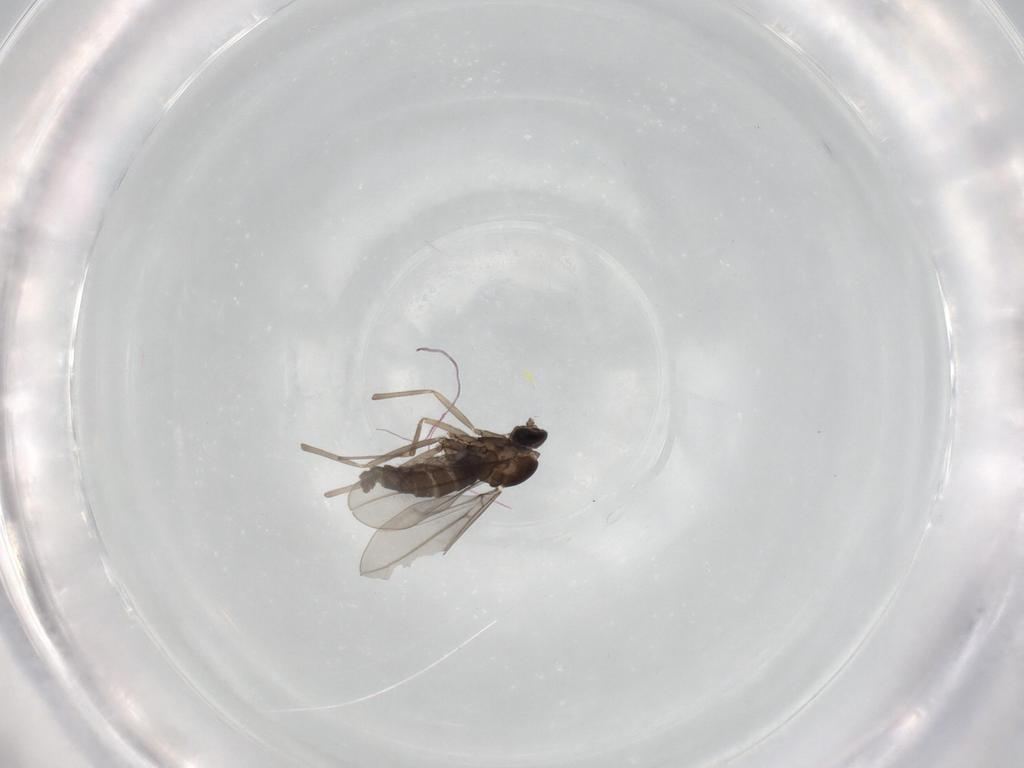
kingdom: Animalia
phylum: Arthropoda
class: Insecta
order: Diptera
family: Cecidomyiidae
